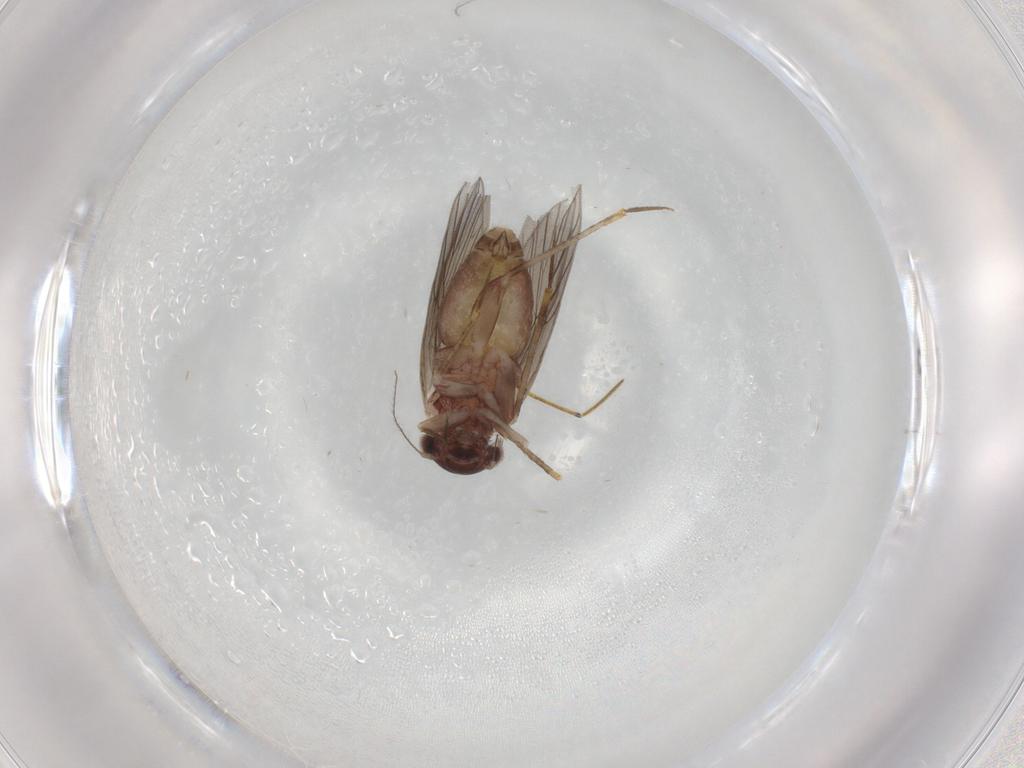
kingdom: Animalia
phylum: Arthropoda
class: Insecta
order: Psocodea
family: Lepidopsocidae
